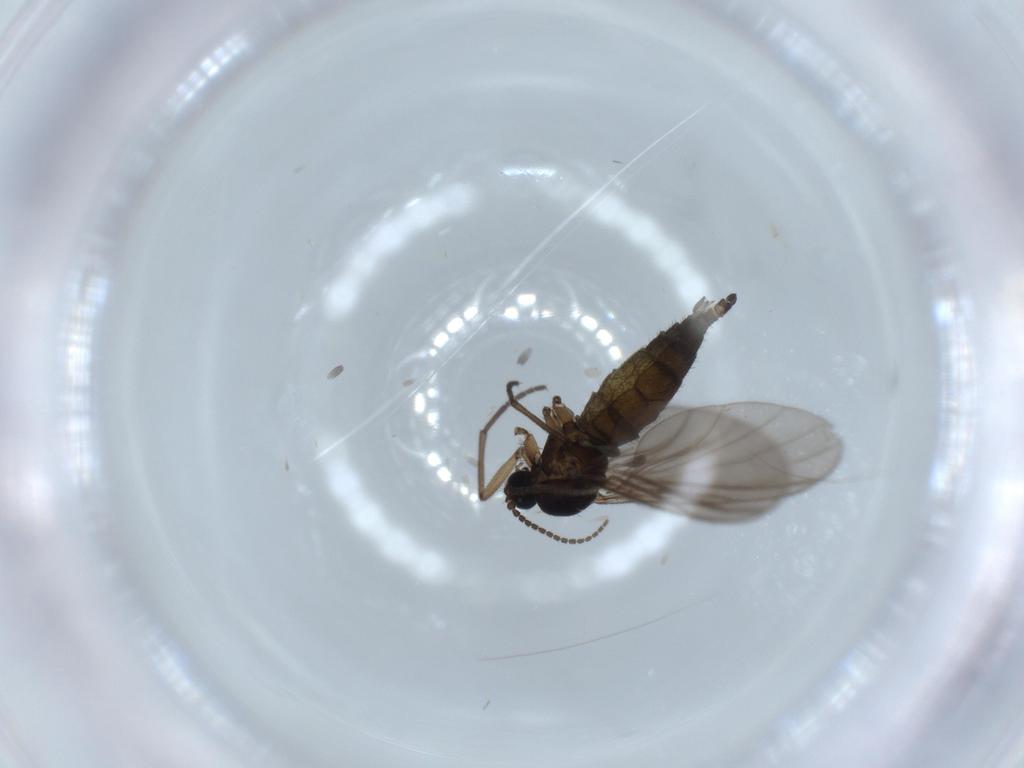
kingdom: Animalia
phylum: Arthropoda
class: Insecta
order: Diptera
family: Sciaridae
